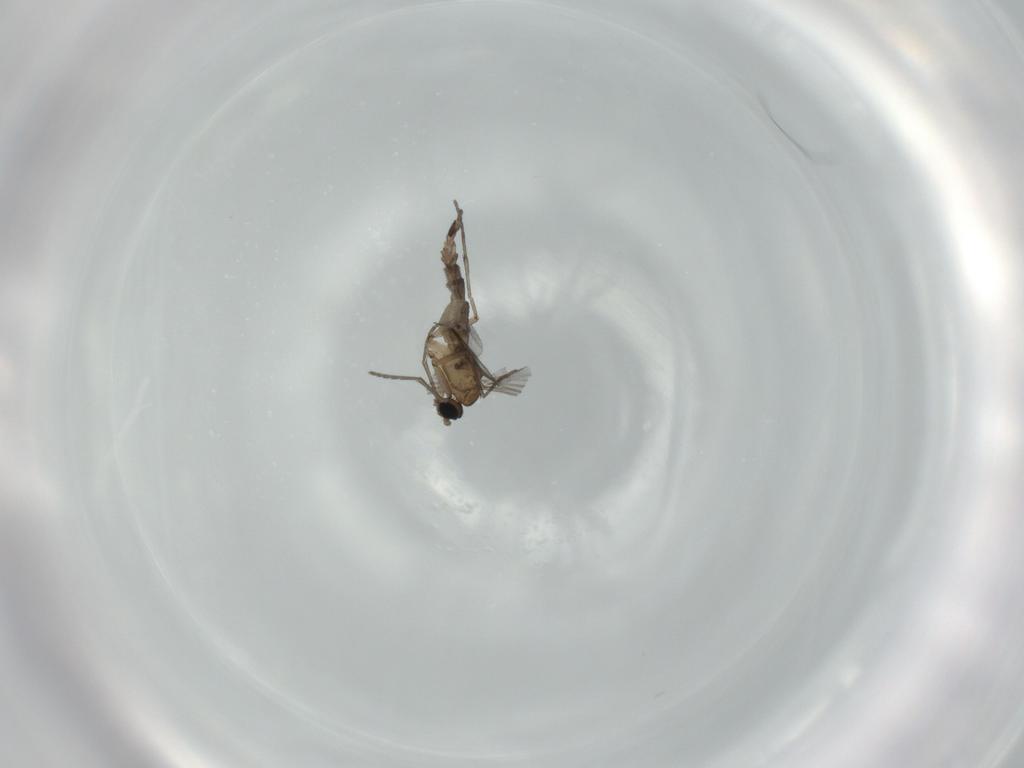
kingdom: Animalia
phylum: Arthropoda
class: Insecta
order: Diptera
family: Sciaridae
